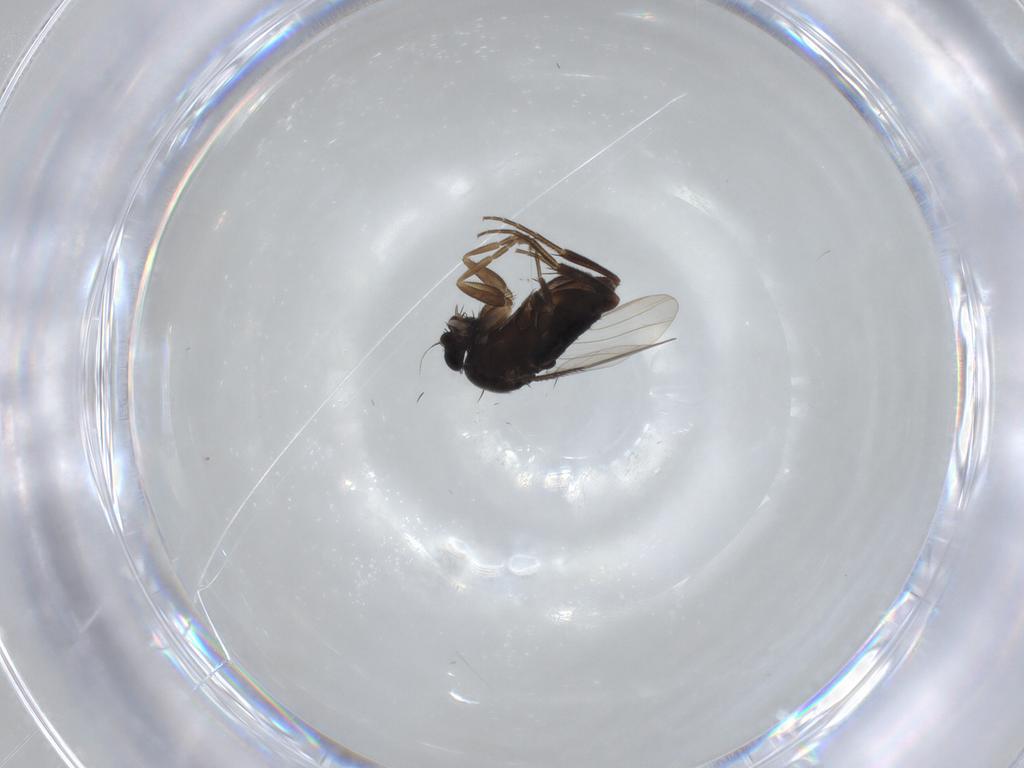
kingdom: Animalia
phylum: Arthropoda
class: Insecta
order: Diptera
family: Phoridae
